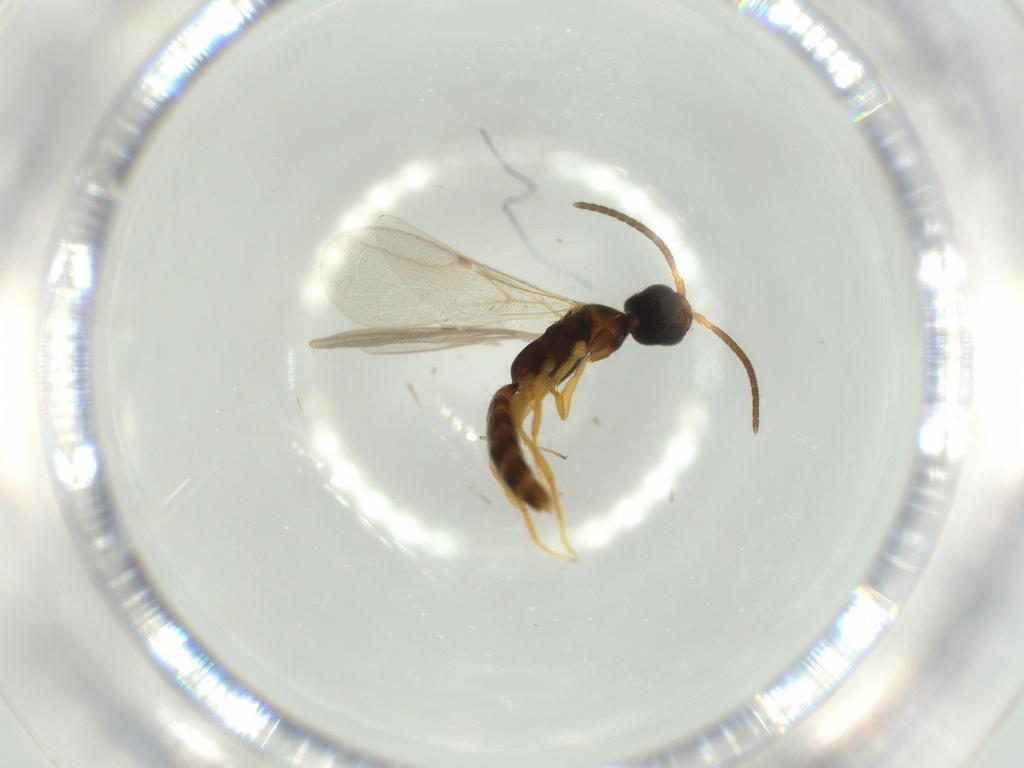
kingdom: Animalia
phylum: Arthropoda
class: Insecta
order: Hymenoptera
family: Bethylidae
